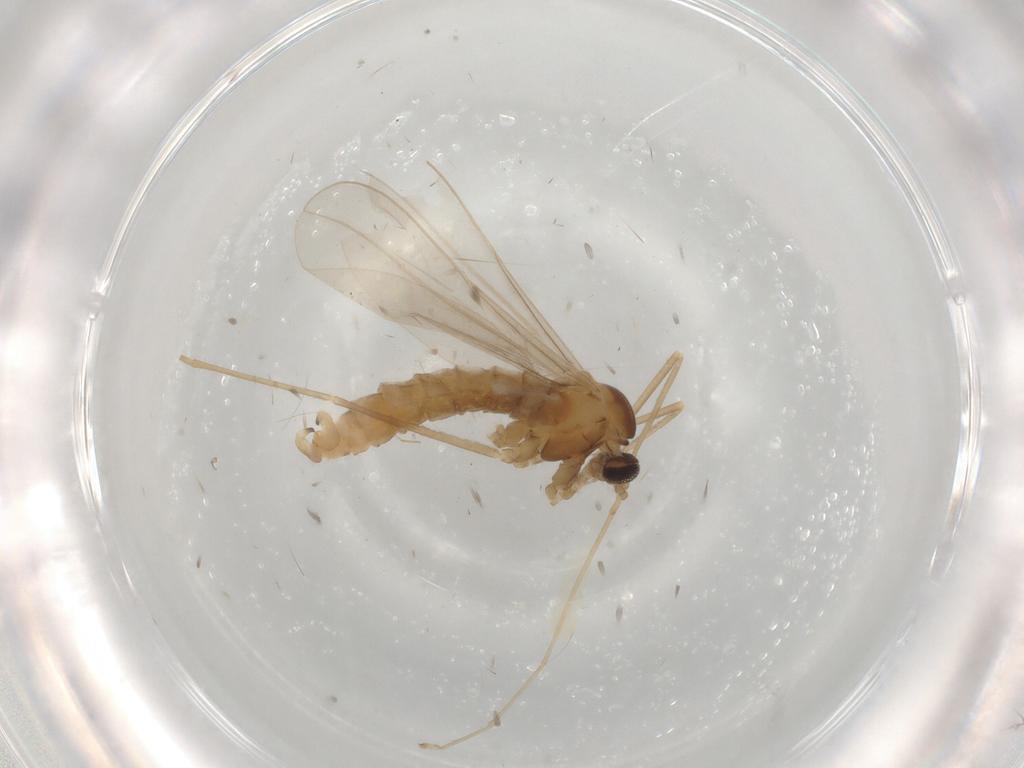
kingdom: Animalia
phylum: Arthropoda
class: Insecta
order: Diptera
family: Cecidomyiidae
